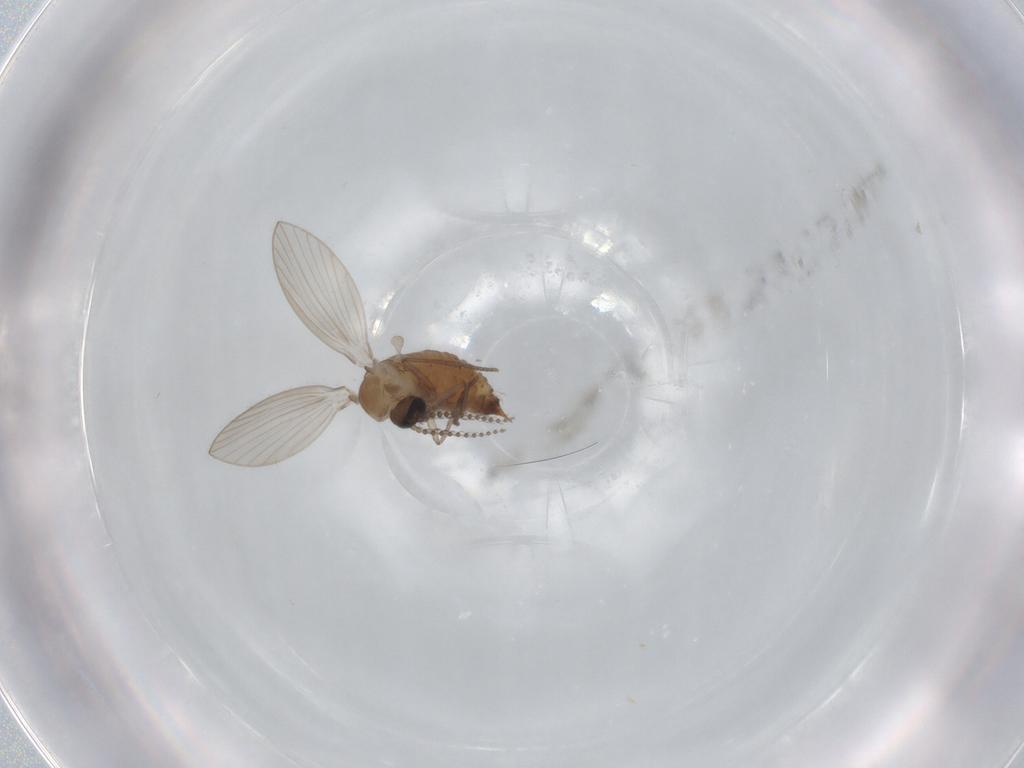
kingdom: Animalia
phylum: Arthropoda
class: Insecta
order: Diptera
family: Psychodidae
